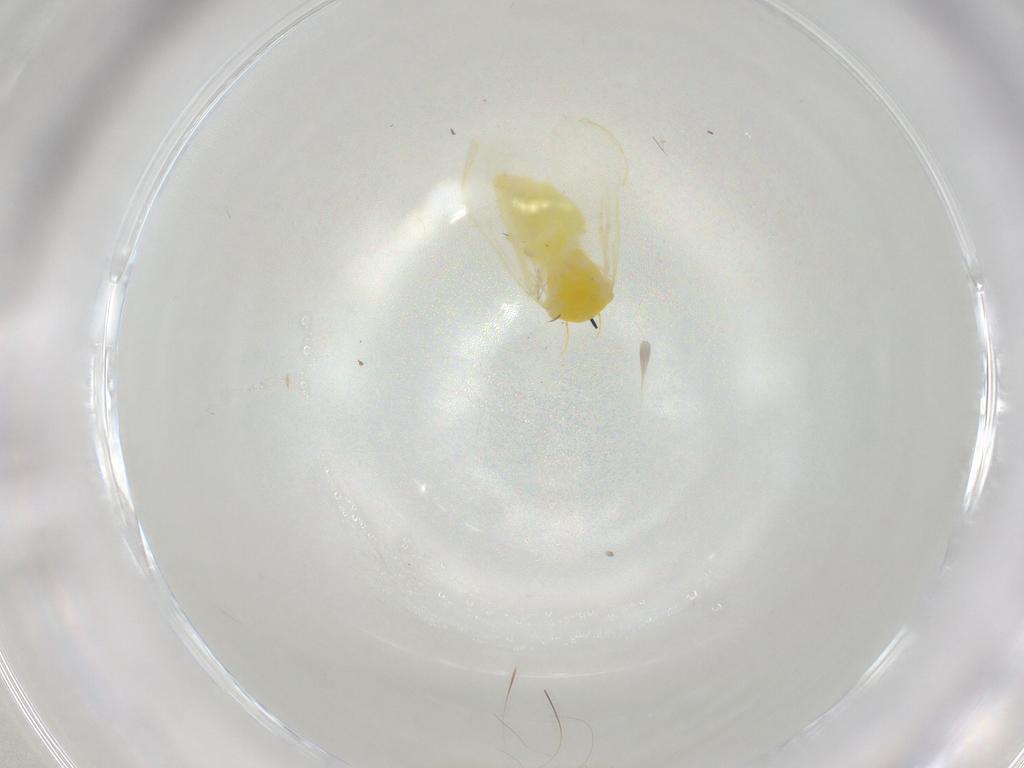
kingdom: Animalia
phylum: Arthropoda
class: Insecta
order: Hemiptera
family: Aleyrodidae
